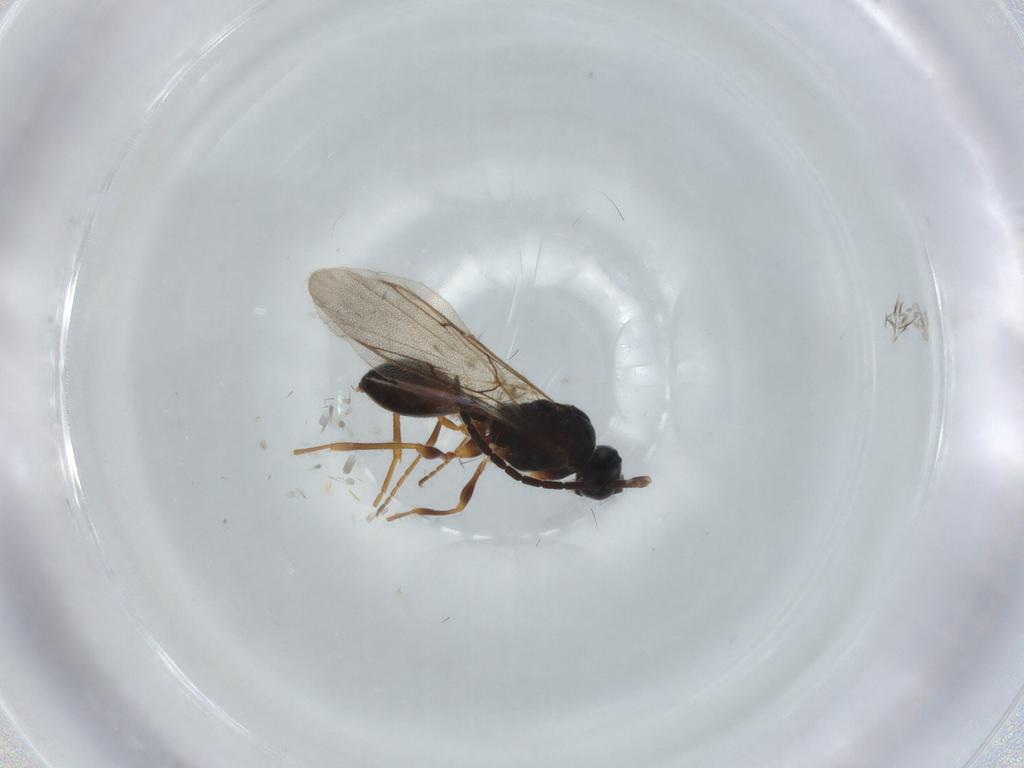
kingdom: Animalia
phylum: Arthropoda
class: Insecta
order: Hymenoptera
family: Diapriidae
